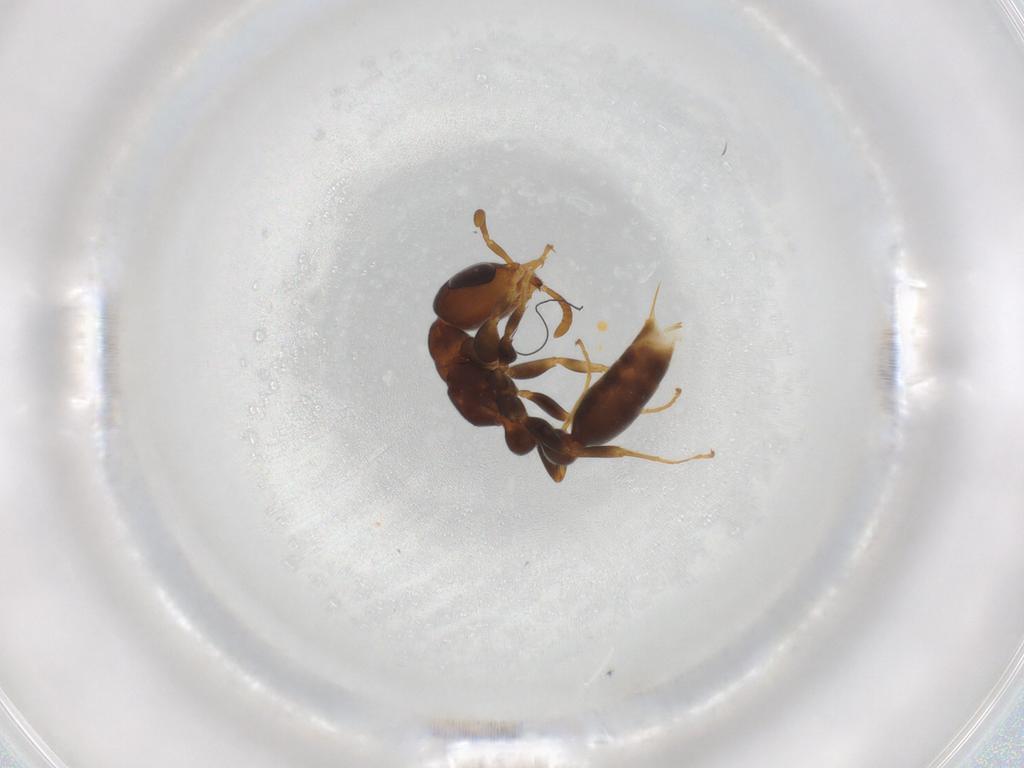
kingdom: Animalia
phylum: Arthropoda
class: Insecta
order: Hymenoptera
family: Formicidae
